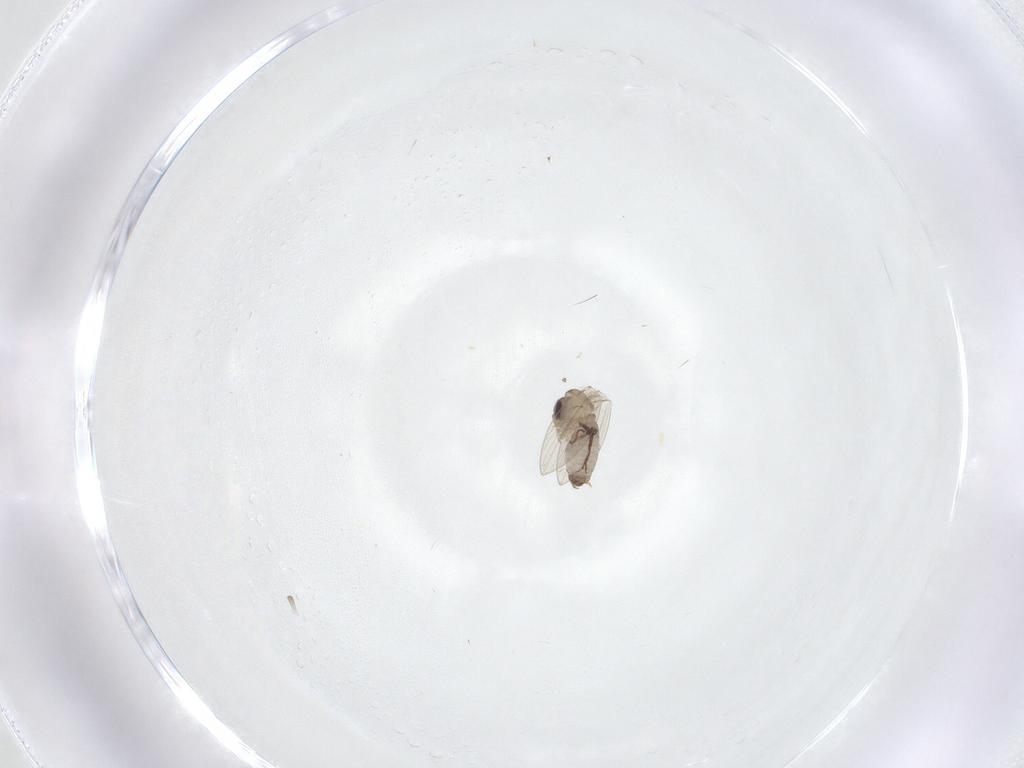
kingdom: Animalia
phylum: Arthropoda
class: Insecta
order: Diptera
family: Psychodidae
